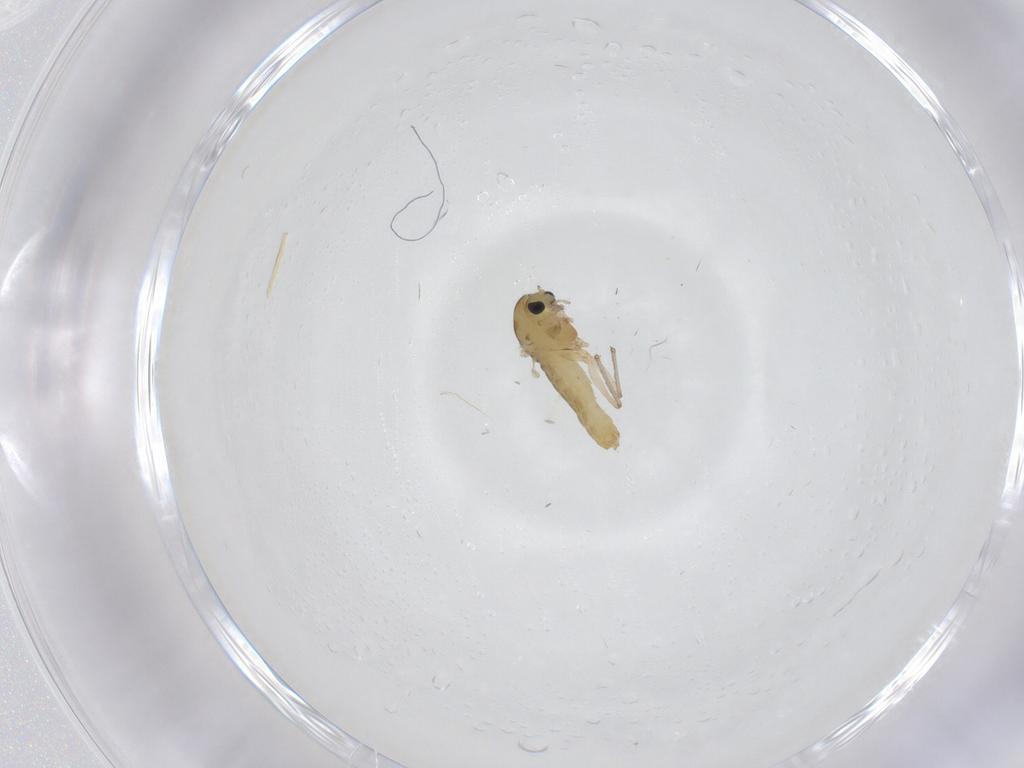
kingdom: Animalia
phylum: Arthropoda
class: Insecta
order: Diptera
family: Chironomidae
